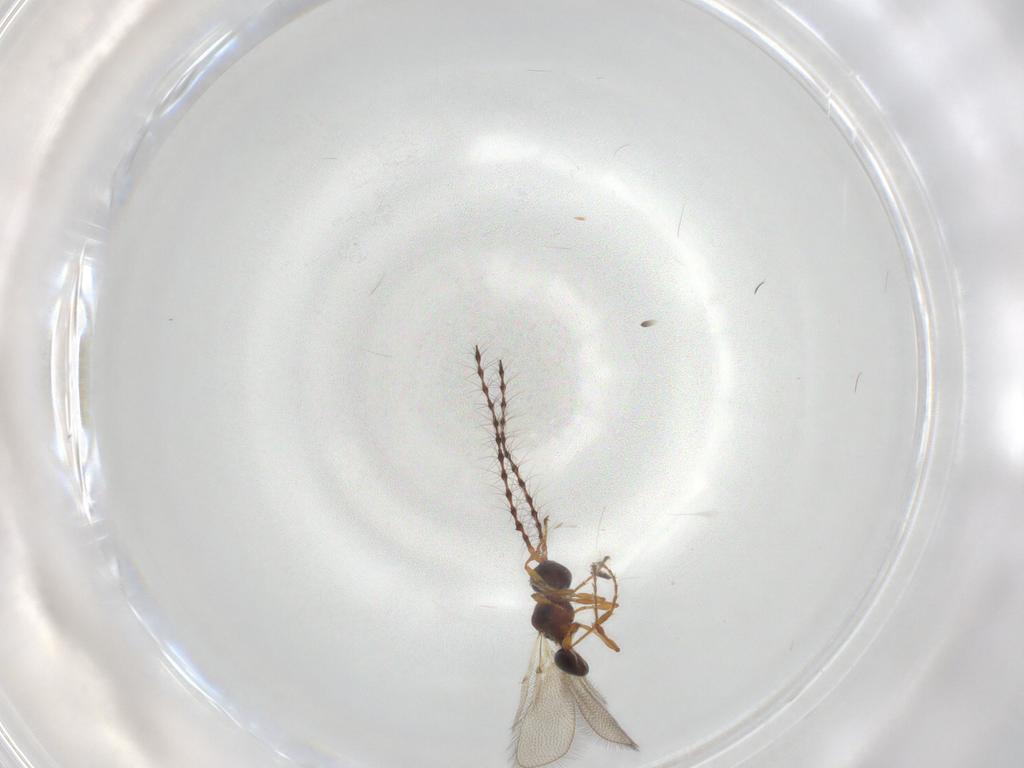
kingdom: Animalia
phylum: Arthropoda
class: Insecta
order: Hymenoptera
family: Diapriidae
